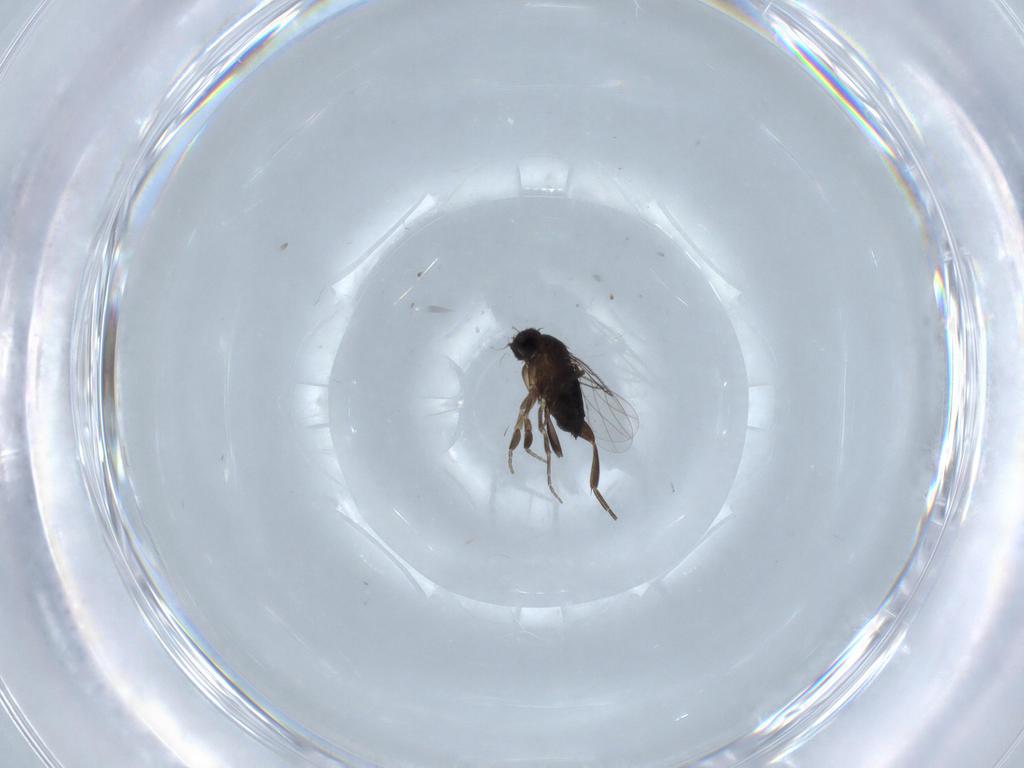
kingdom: Animalia
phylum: Arthropoda
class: Insecta
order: Diptera
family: Phoridae
